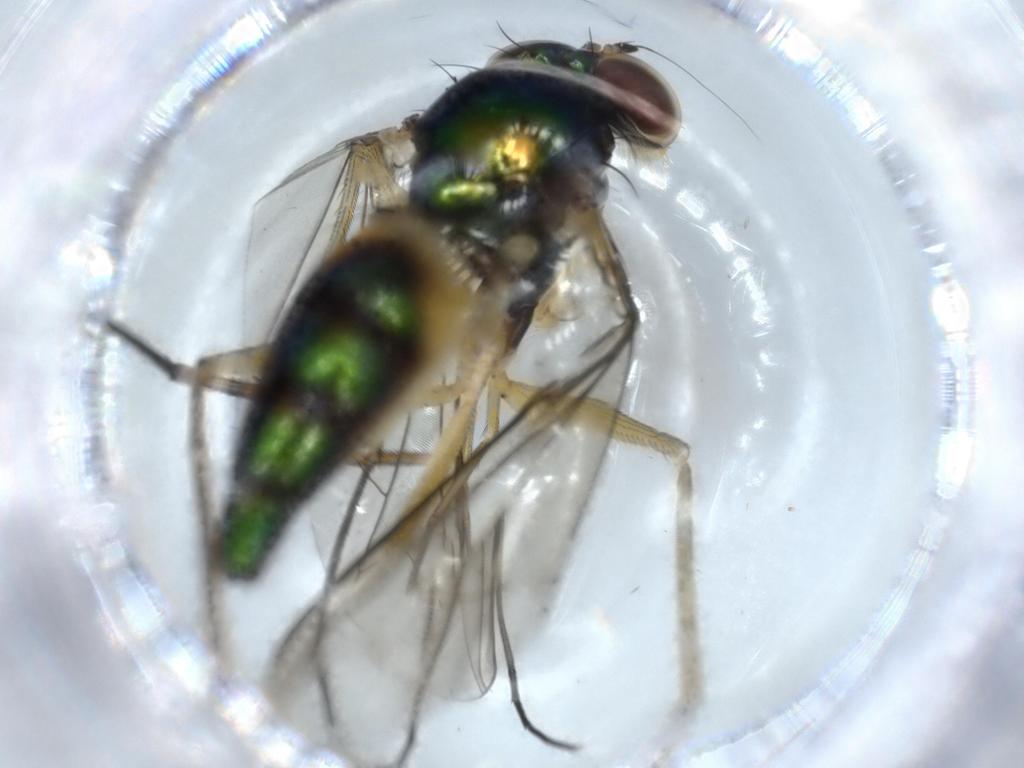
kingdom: Animalia
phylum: Arthropoda
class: Insecta
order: Diptera
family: Dolichopodidae
